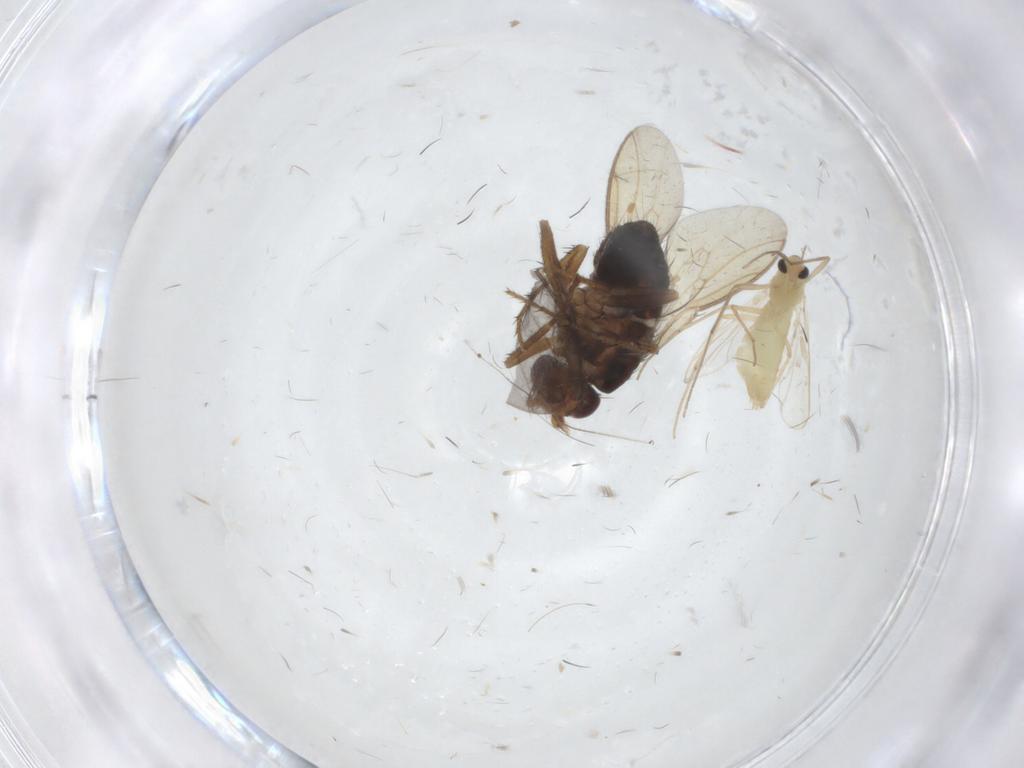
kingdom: Animalia
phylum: Arthropoda
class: Insecta
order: Diptera
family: Sphaeroceridae
